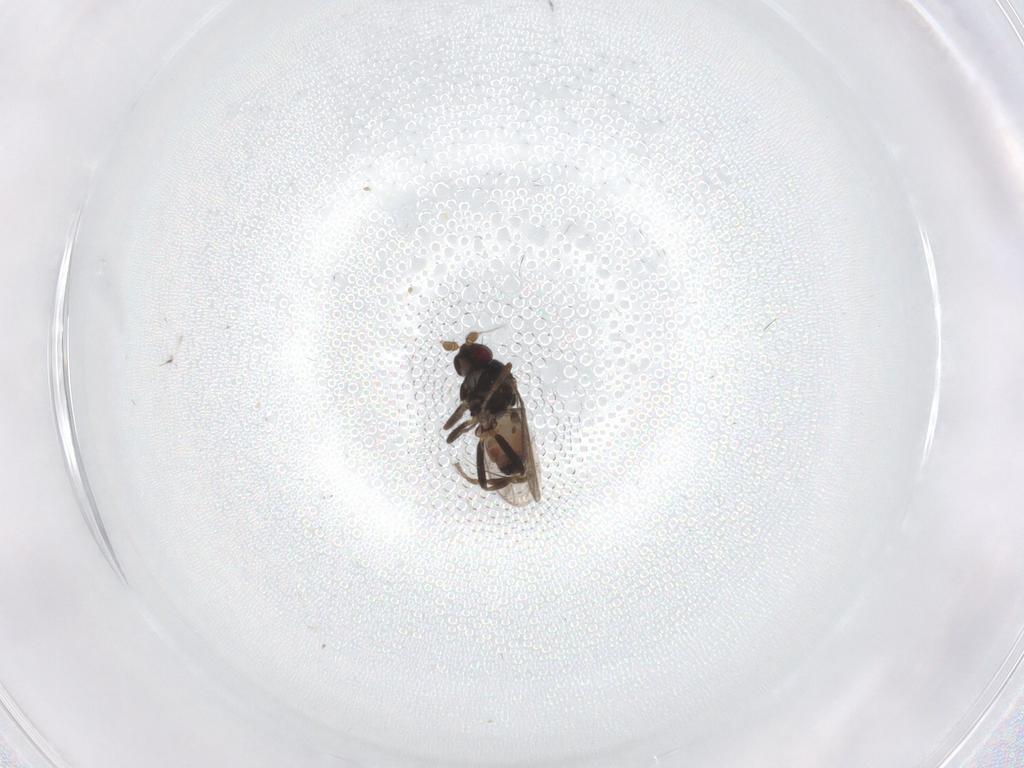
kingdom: Animalia
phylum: Arthropoda
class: Insecta
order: Diptera
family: Sphaeroceridae
